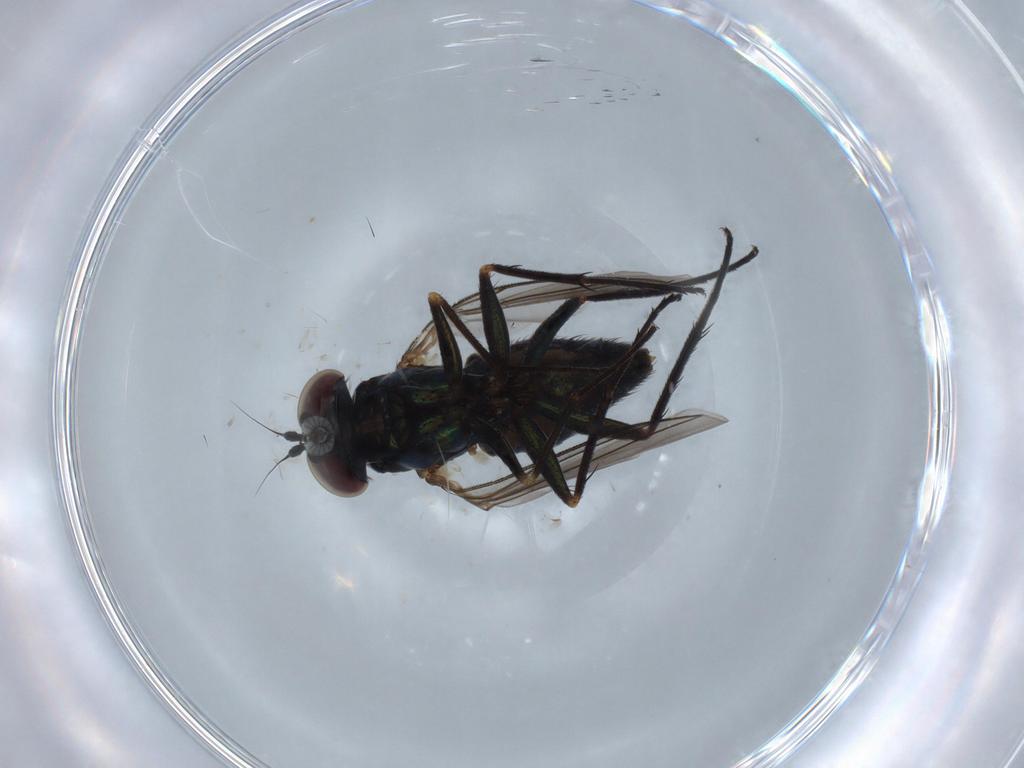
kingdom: Animalia
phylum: Arthropoda
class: Insecta
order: Diptera
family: Dolichopodidae
